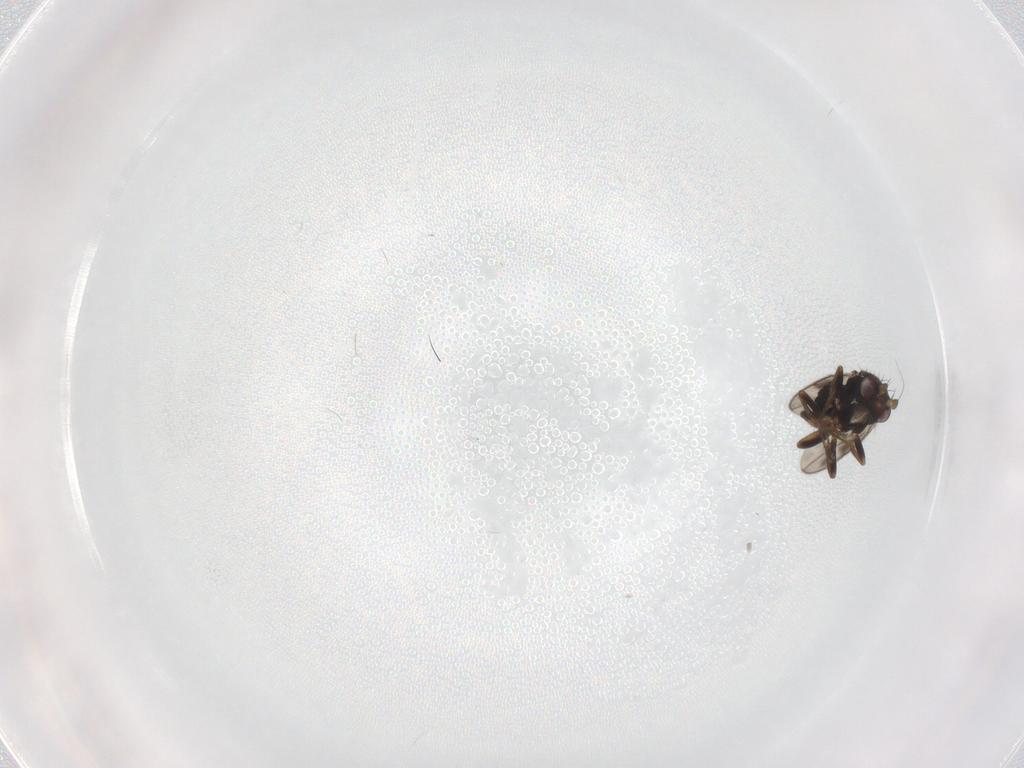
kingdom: Animalia
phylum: Arthropoda
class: Insecta
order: Diptera
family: Sphaeroceridae
